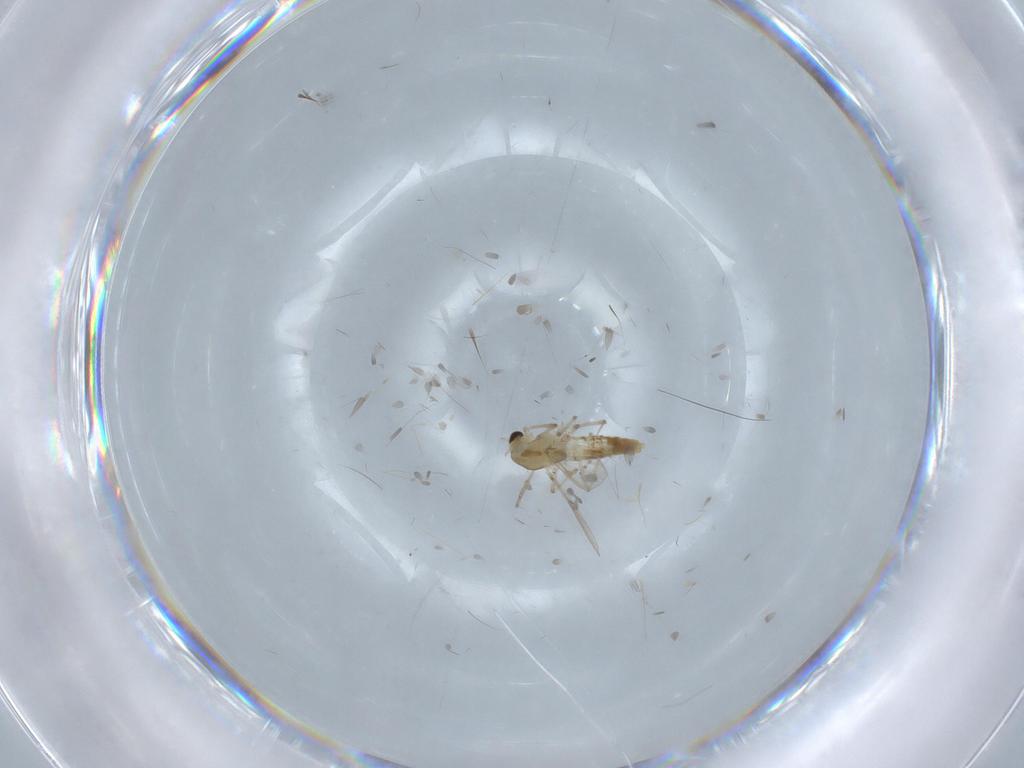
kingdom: Animalia
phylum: Arthropoda
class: Insecta
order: Diptera
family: Chironomidae
